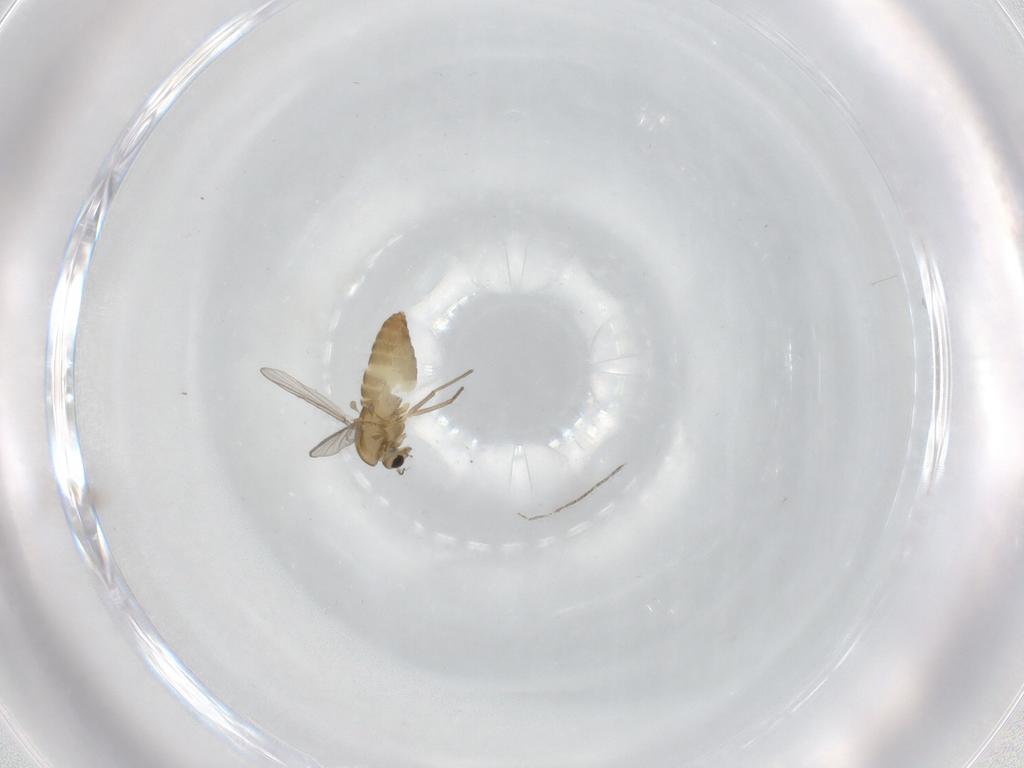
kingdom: Animalia
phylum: Arthropoda
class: Insecta
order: Diptera
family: Chironomidae
